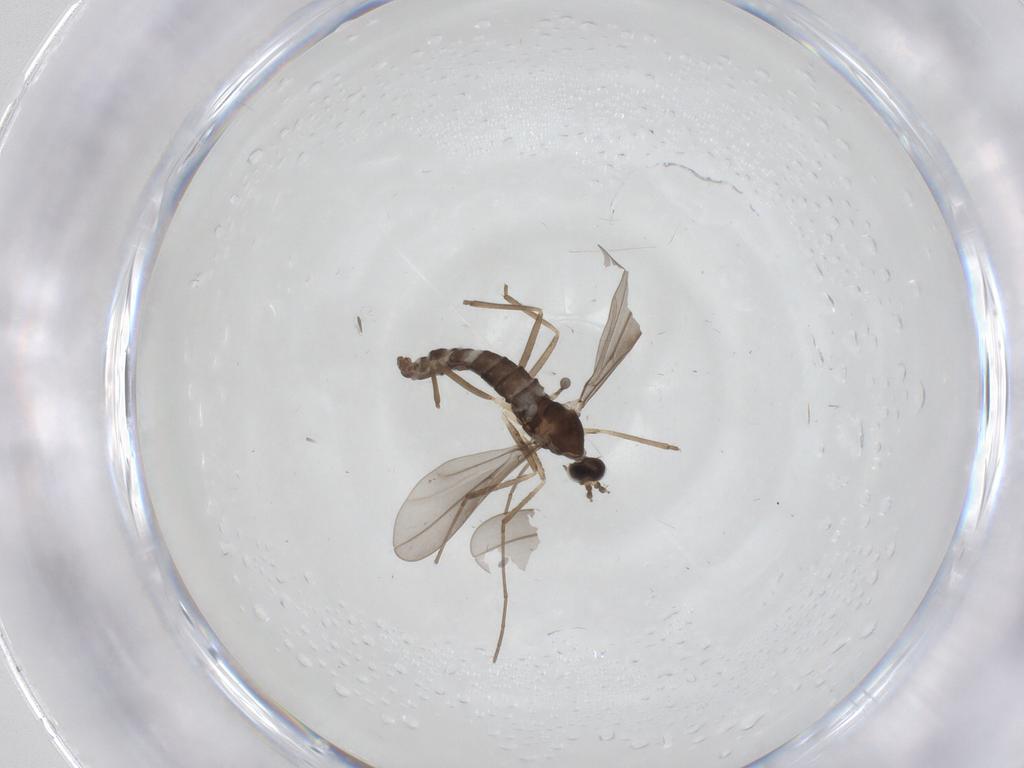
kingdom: Animalia
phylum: Arthropoda
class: Insecta
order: Diptera
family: Cecidomyiidae
